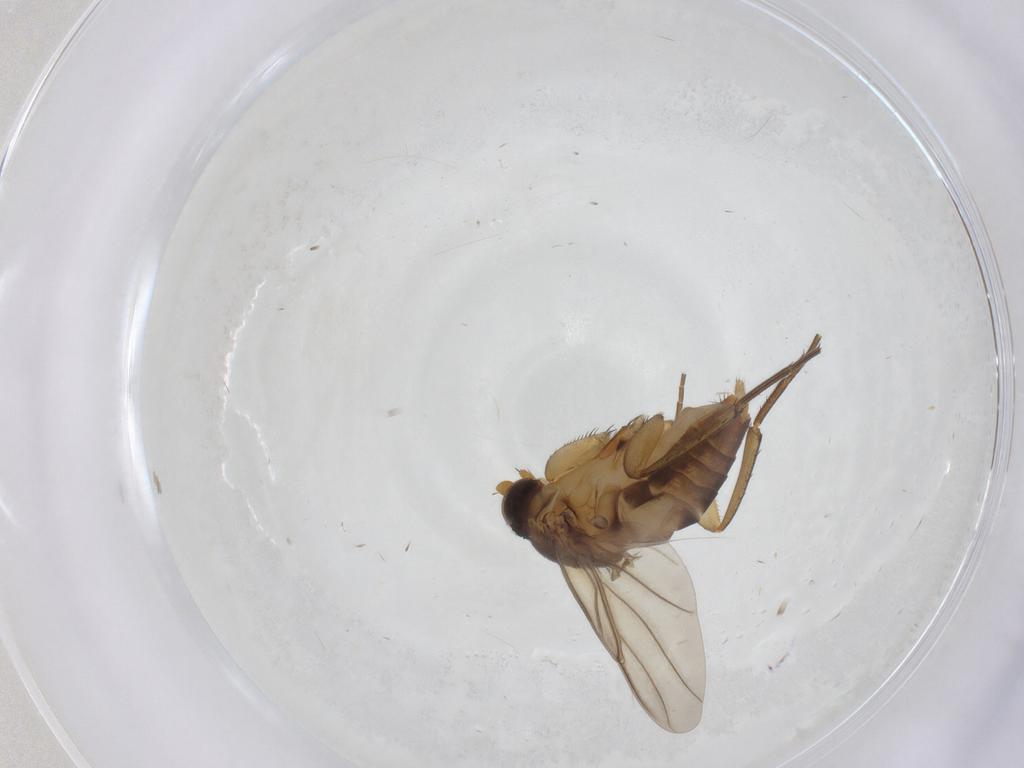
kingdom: Animalia
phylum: Arthropoda
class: Insecta
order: Diptera
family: Phoridae
